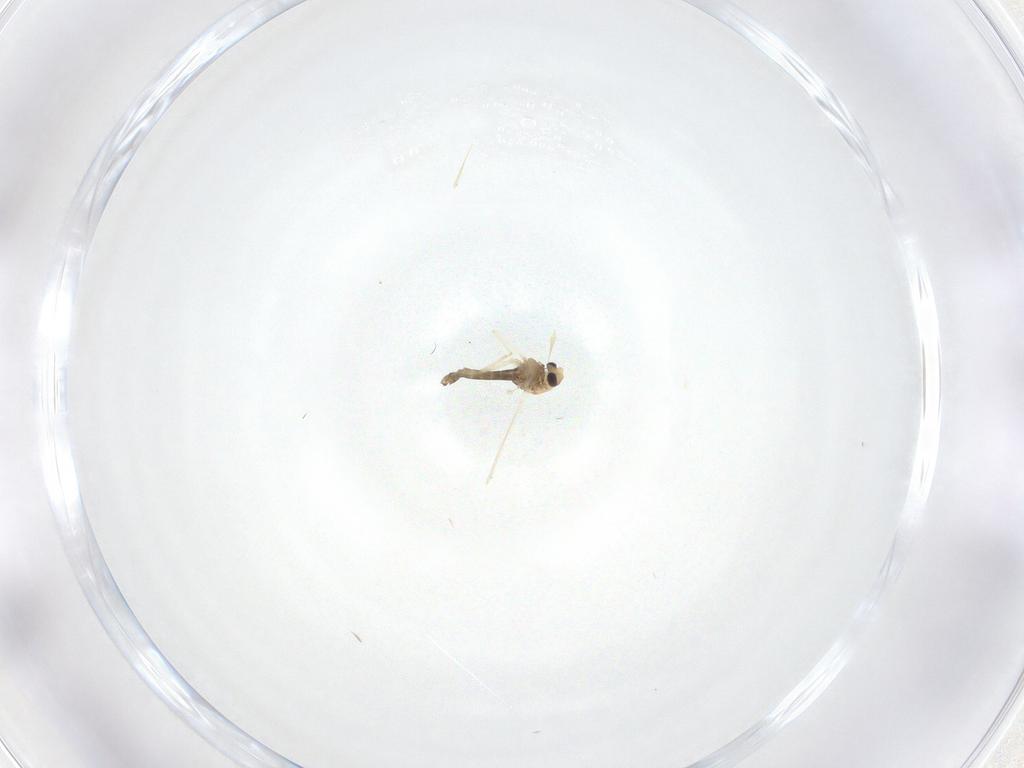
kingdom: Animalia
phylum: Arthropoda
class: Insecta
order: Diptera
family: Chironomidae
